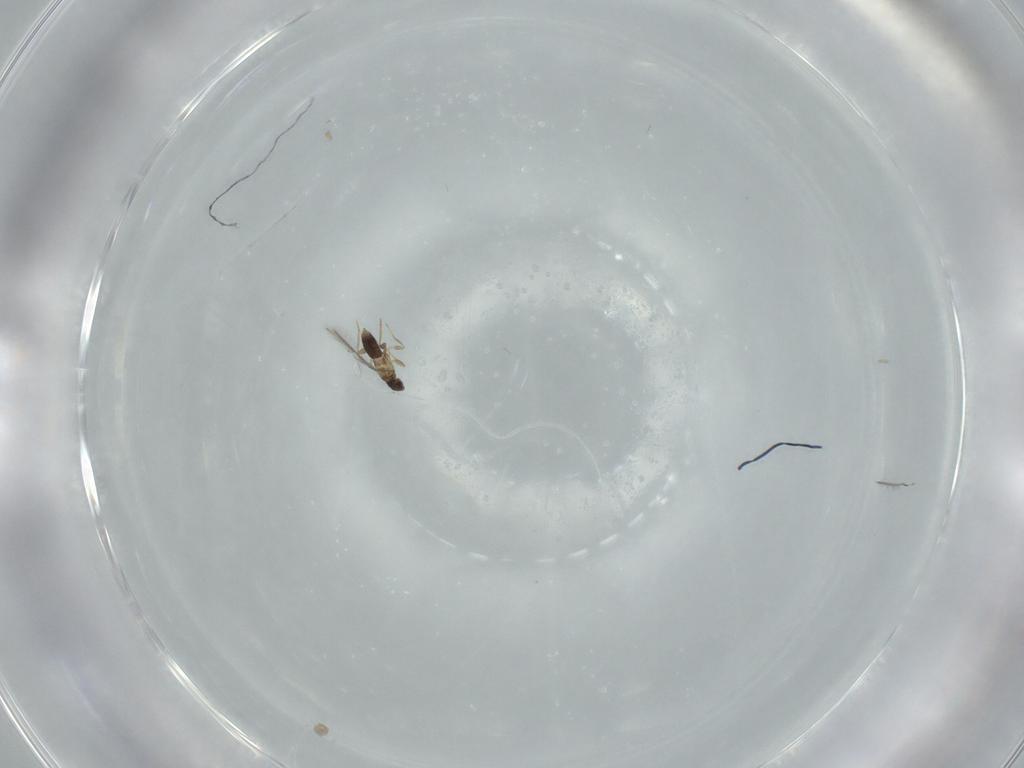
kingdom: Animalia
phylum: Arthropoda
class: Insecta
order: Hymenoptera
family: Mymaridae
